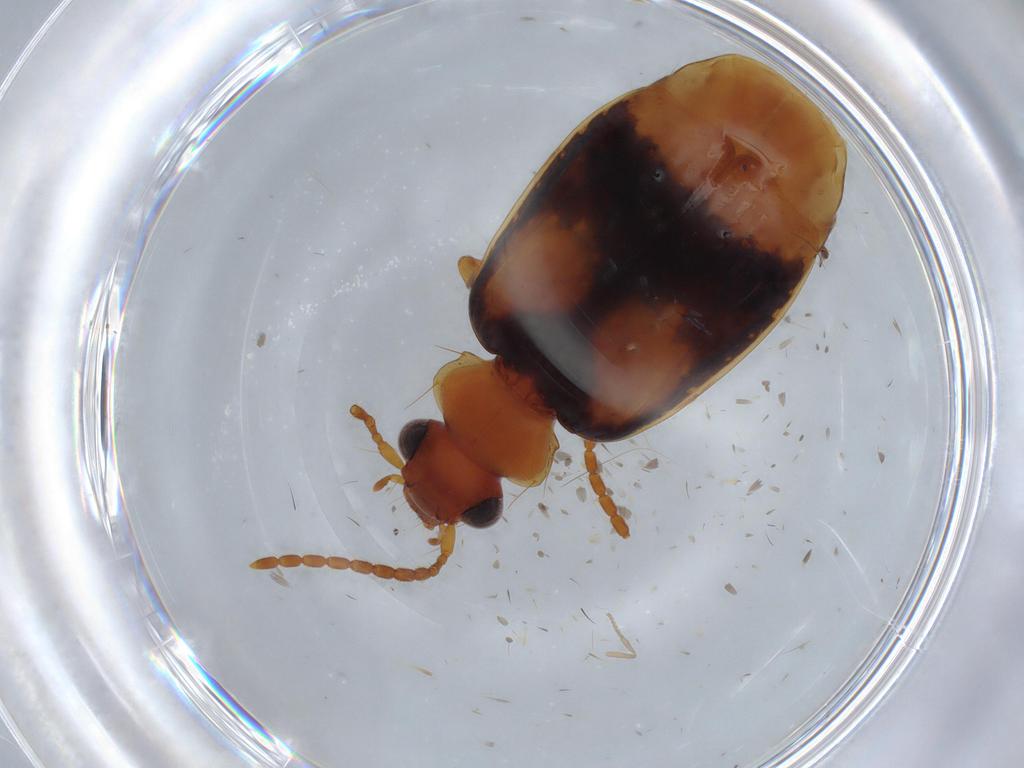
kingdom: Animalia
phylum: Arthropoda
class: Insecta
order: Coleoptera
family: Carabidae
